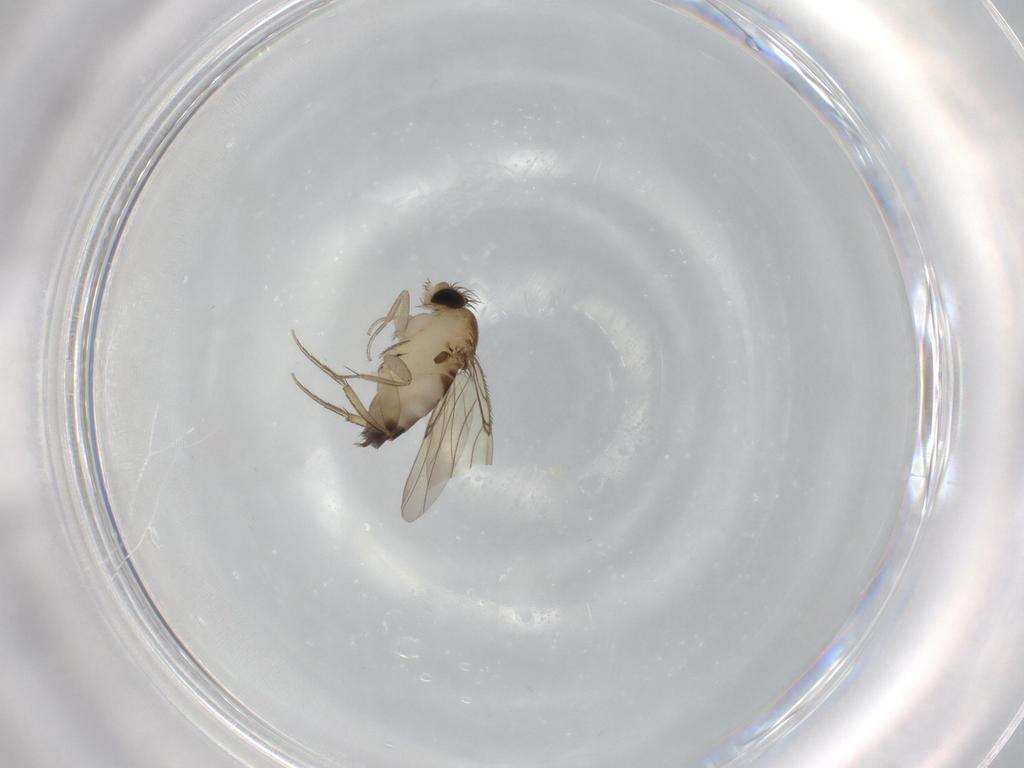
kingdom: Animalia
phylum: Arthropoda
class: Insecta
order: Diptera
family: Phoridae
